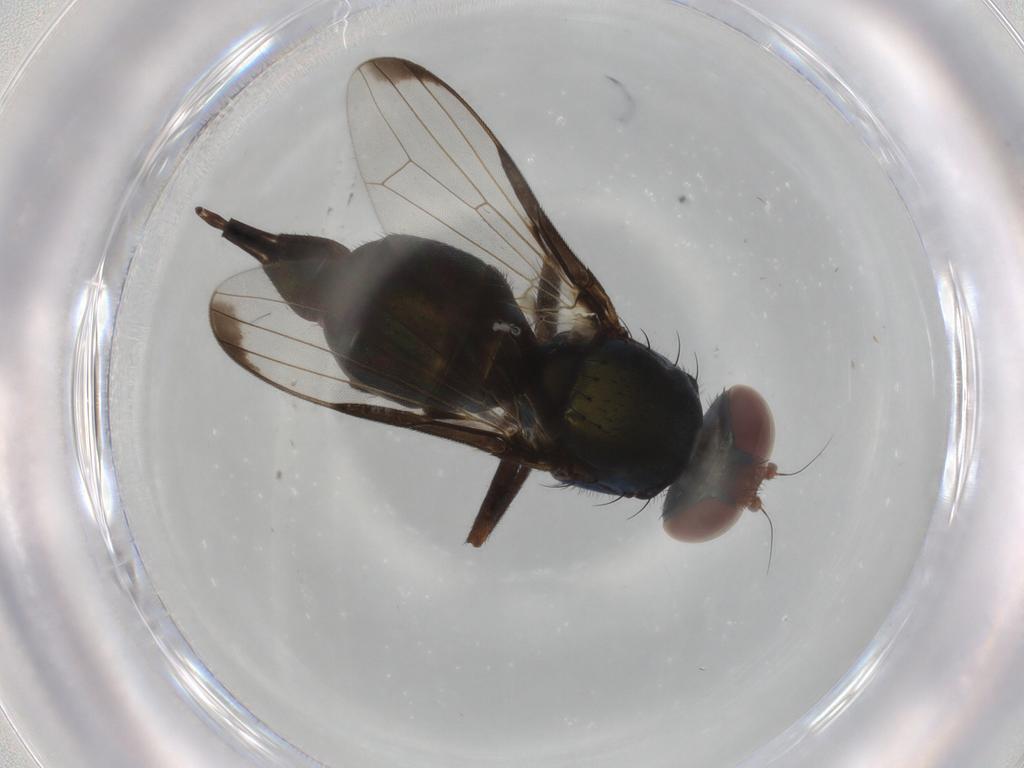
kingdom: Animalia
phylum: Arthropoda
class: Insecta
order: Diptera
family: Ulidiidae
